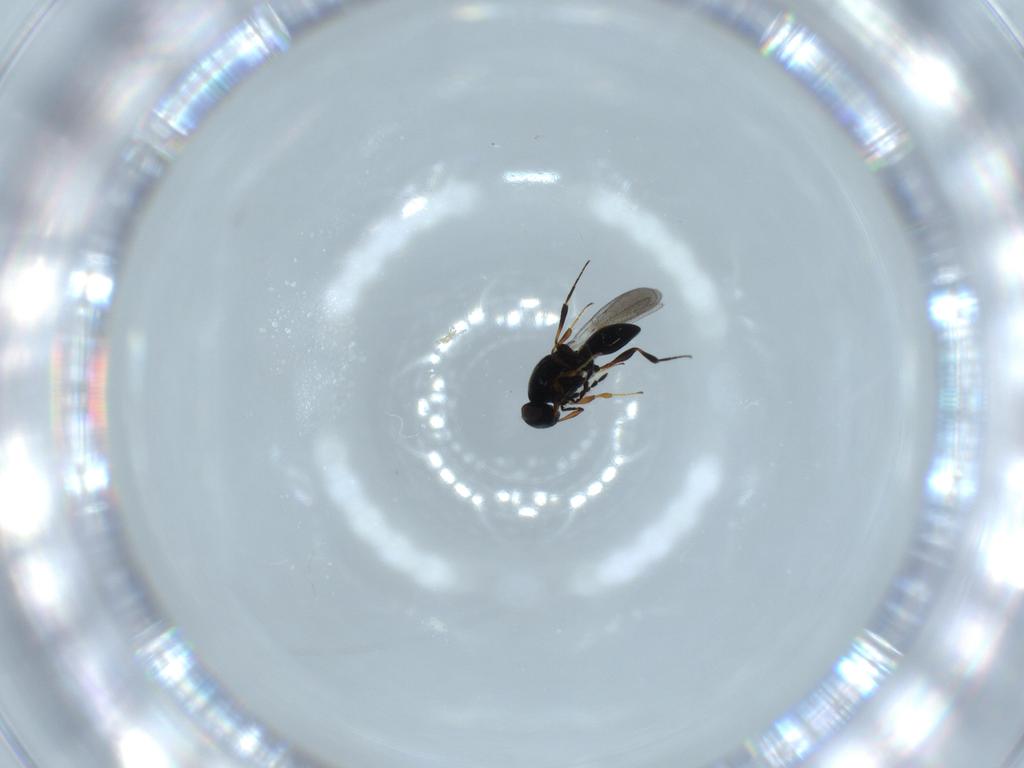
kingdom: Animalia
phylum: Arthropoda
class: Insecta
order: Hymenoptera
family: Platygastridae
